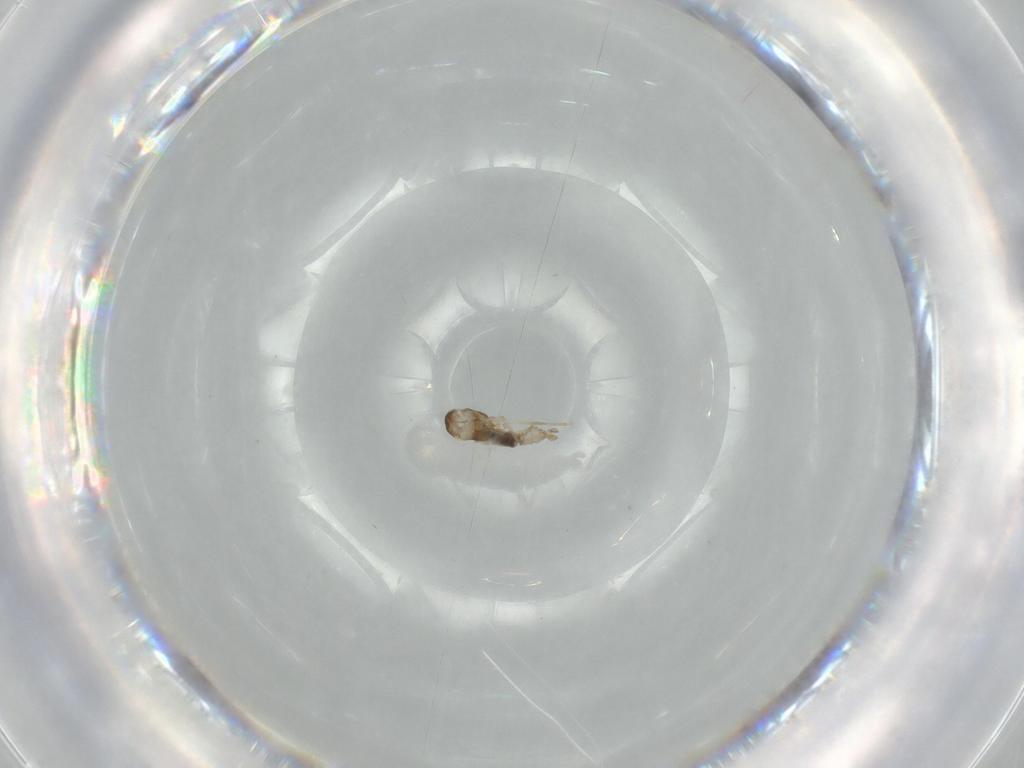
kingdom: Animalia
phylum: Arthropoda
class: Insecta
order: Diptera
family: Cecidomyiidae
